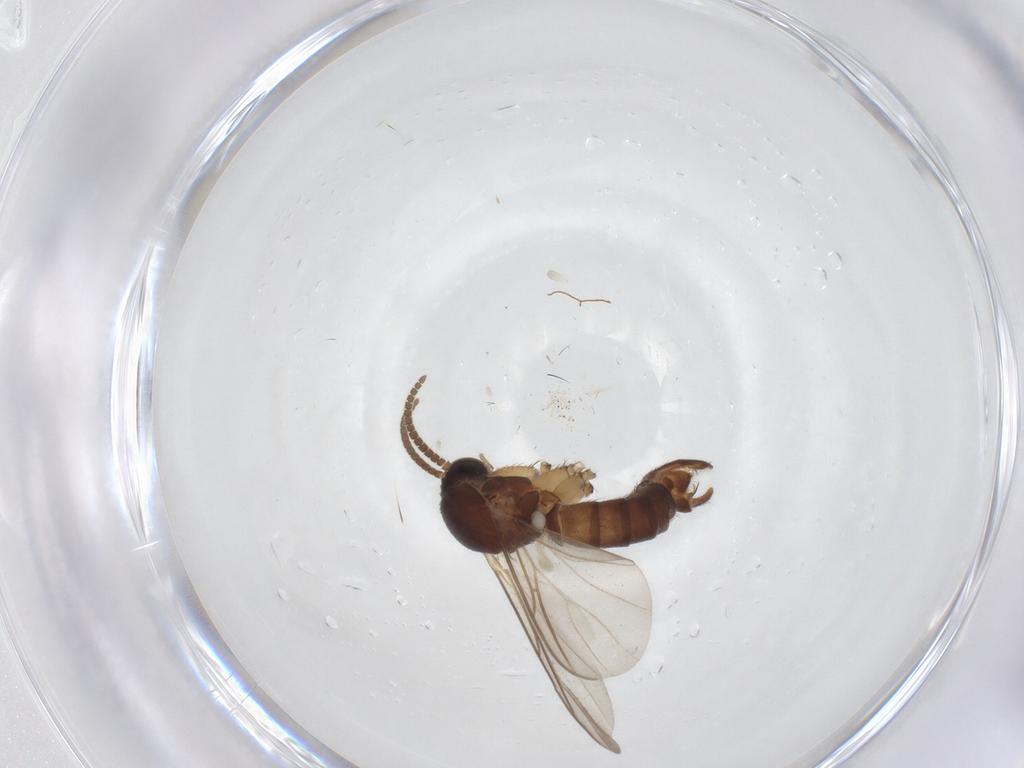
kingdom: Animalia
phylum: Arthropoda
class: Insecta
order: Diptera
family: Mycetophilidae
